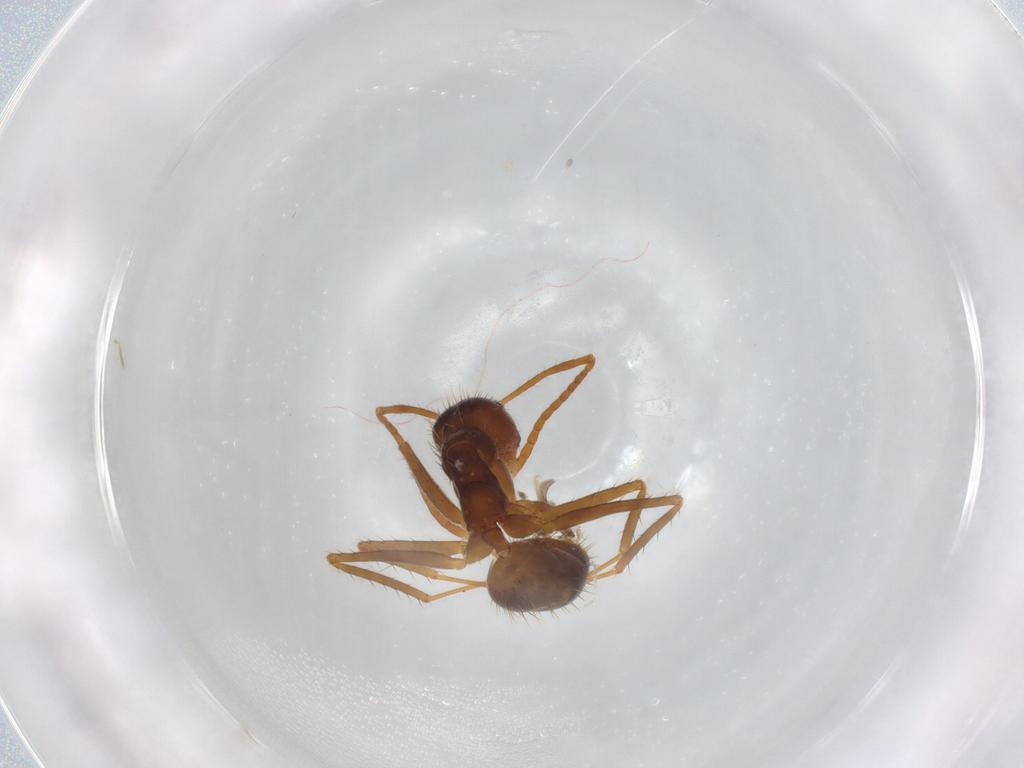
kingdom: Animalia
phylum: Arthropoda
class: Insecta
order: Hymenoptera
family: Formicidae
